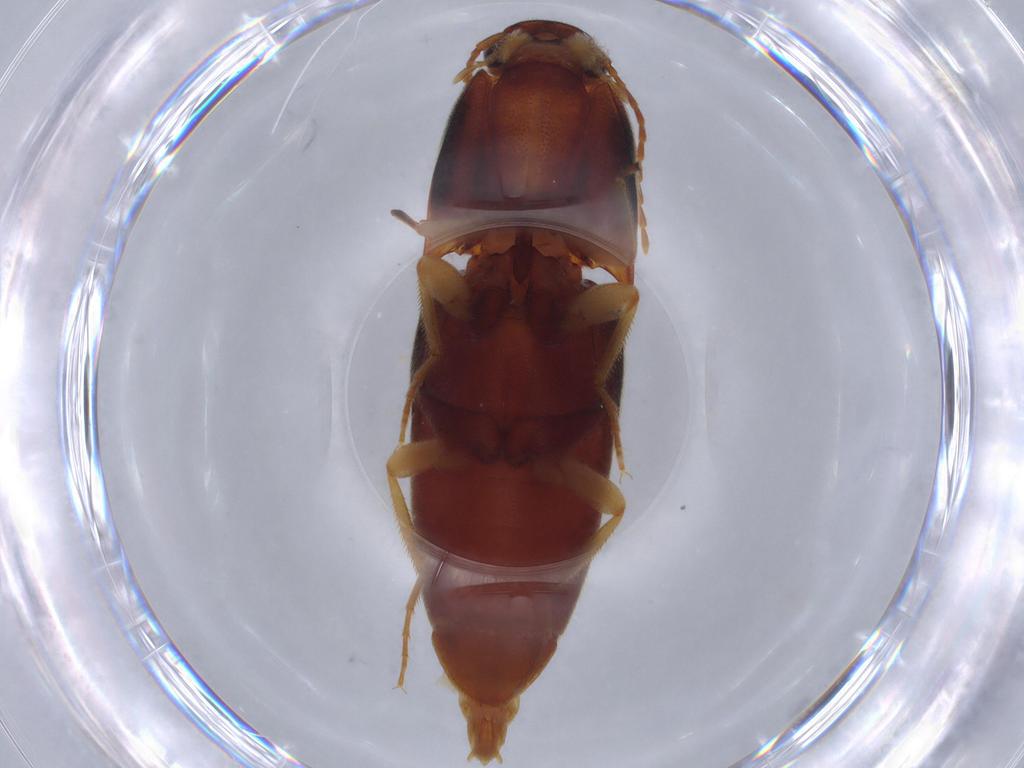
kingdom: Animalia
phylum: Arthropoda
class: Insecta
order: Coleoptera
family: Elateridae
